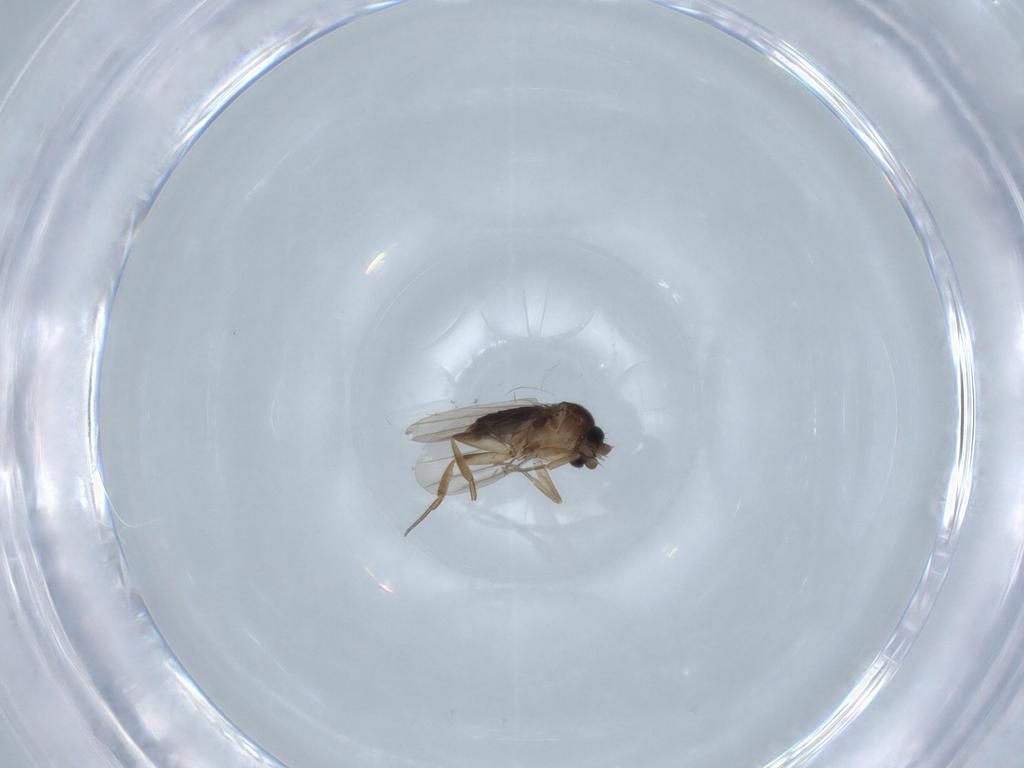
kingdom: Animalia
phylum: Arthropoda
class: Insecta
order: Diptera
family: Phoridae
